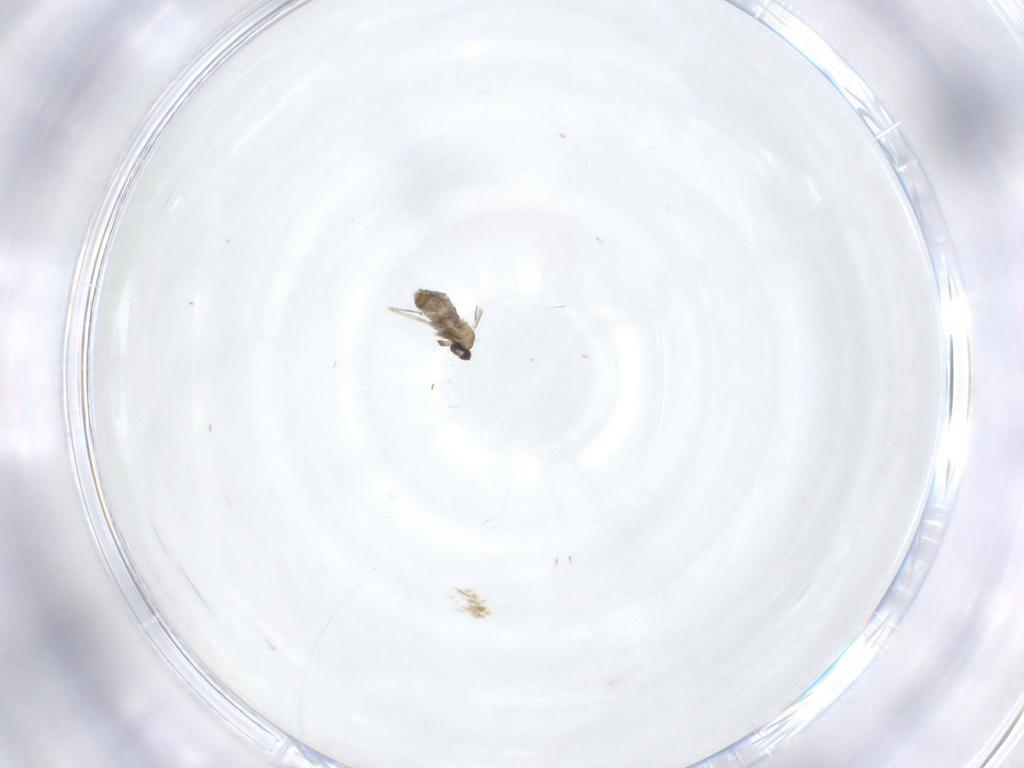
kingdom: Animalia
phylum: Arthropoda
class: Insecta
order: Diptera
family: Cecidomyiidae
